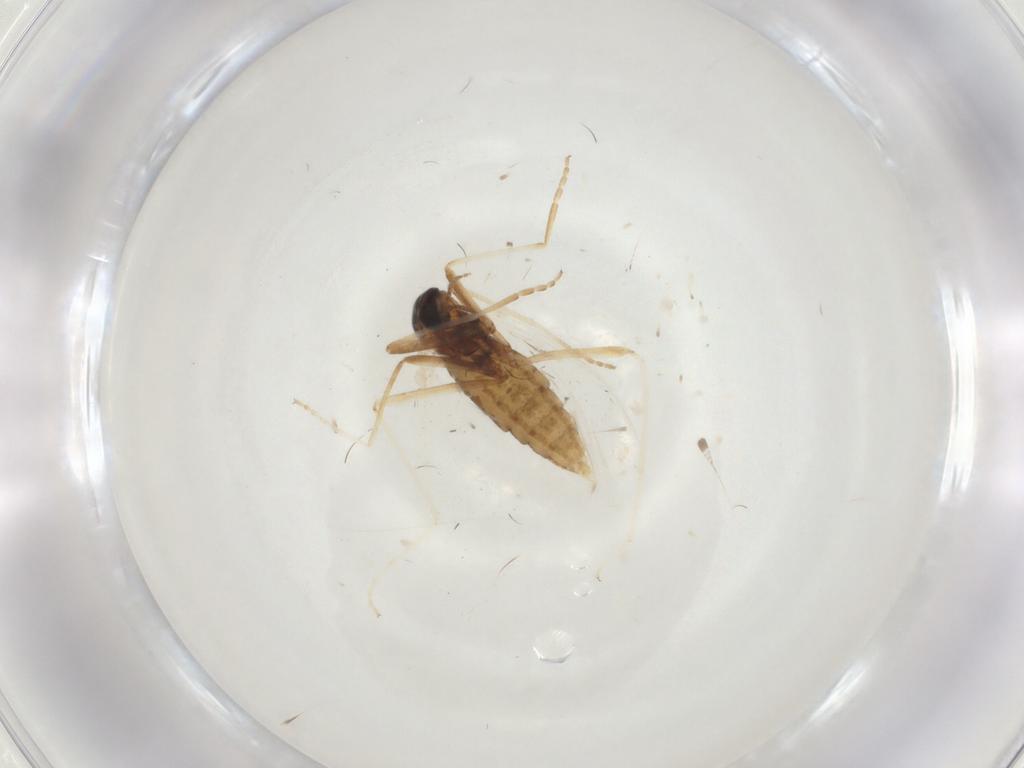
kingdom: Animalia
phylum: Arthropoda
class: Insecta
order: Diptera
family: Cecidomyiidae
